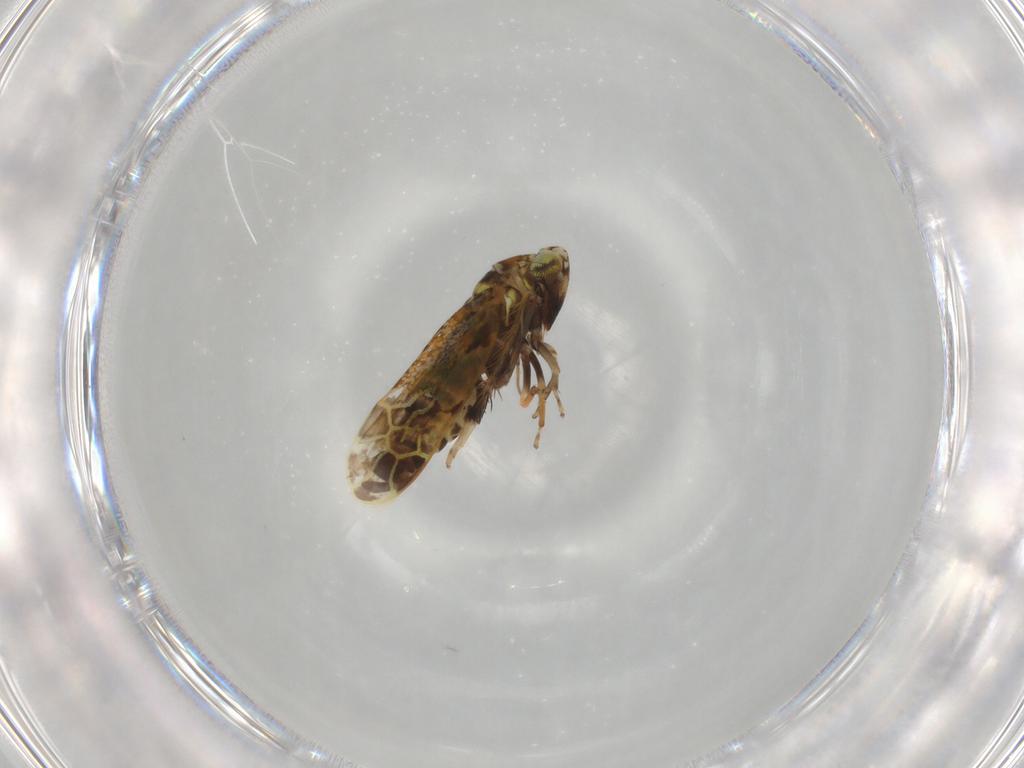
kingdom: Animalia
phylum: Arthropoda
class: Insecta
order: Hemiptera
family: Cicadellidae
